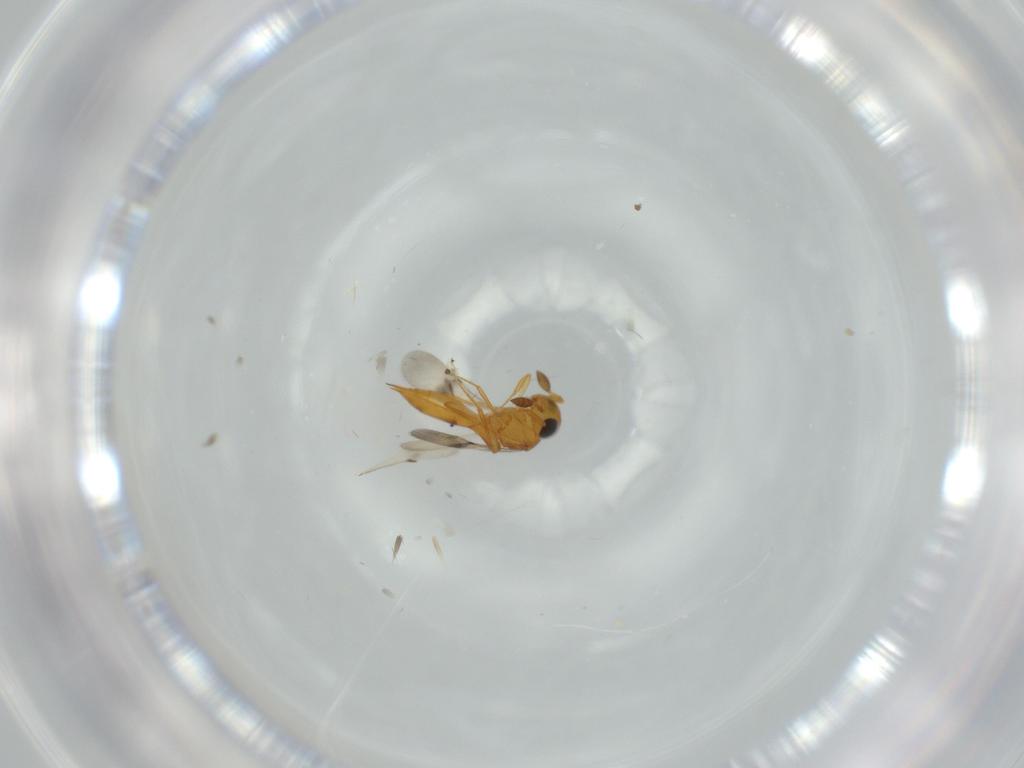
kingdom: Animalia
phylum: Arthropoda
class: Insecta
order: Hymenoptera
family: Scelionidae
